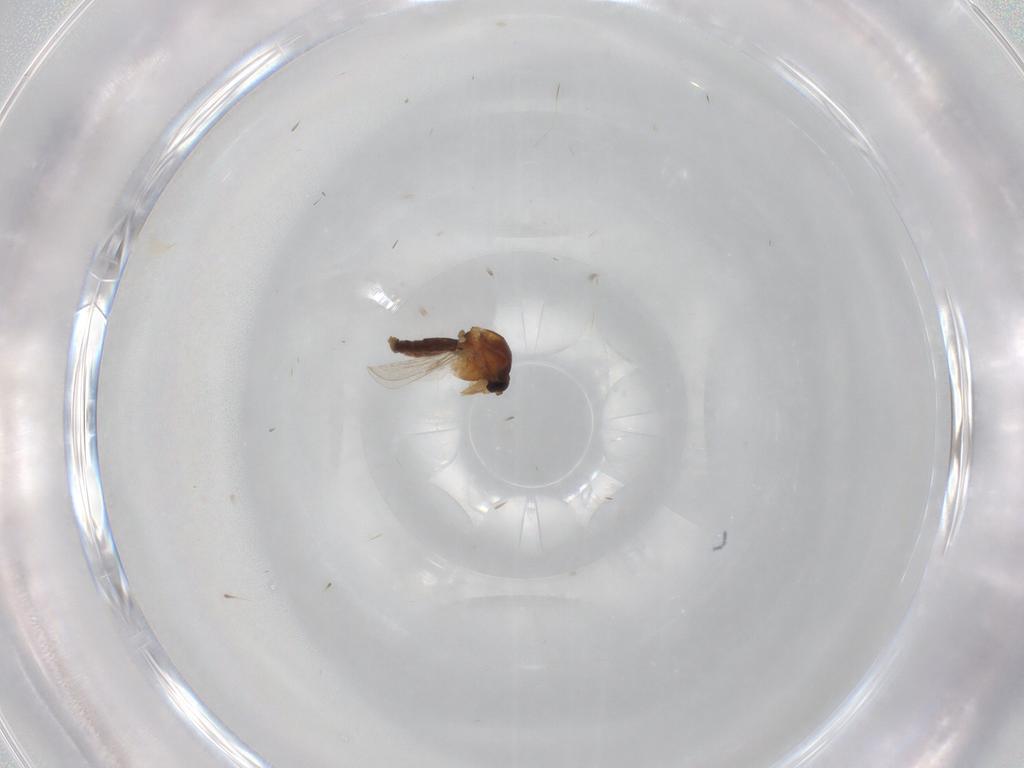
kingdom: Animalia
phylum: Arthropoda
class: Insecta
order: Diptera
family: Ceratopogonidae
